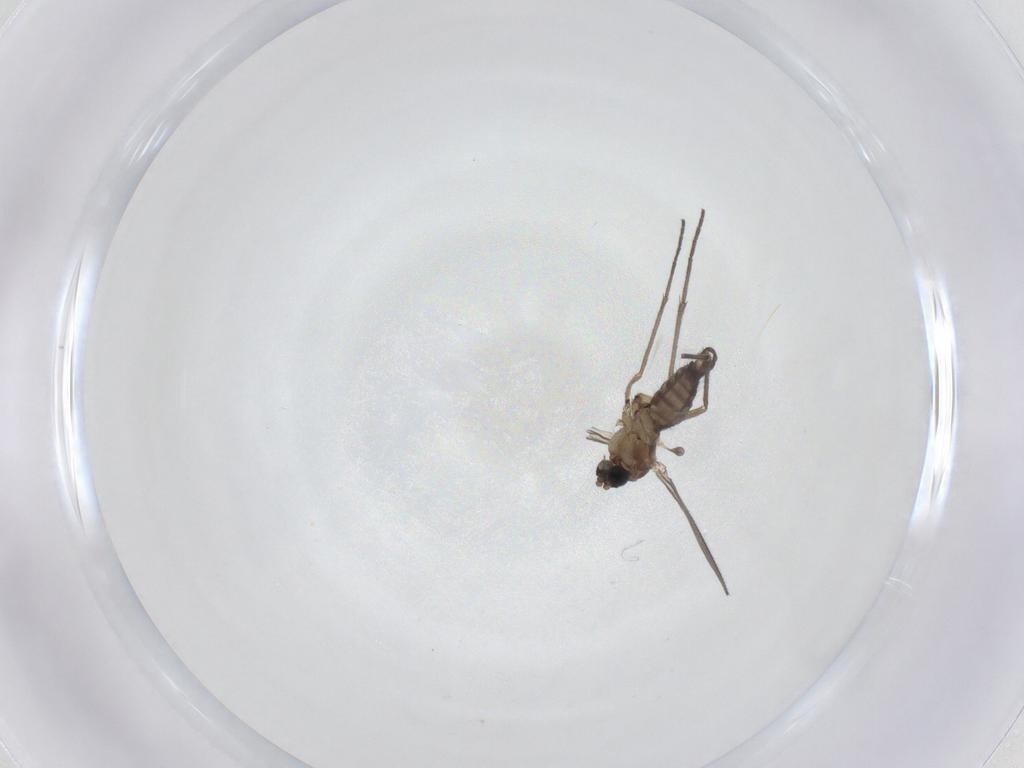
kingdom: Animalia
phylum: Arthropoda
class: Insecta
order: Diptera
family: Sciaridae
